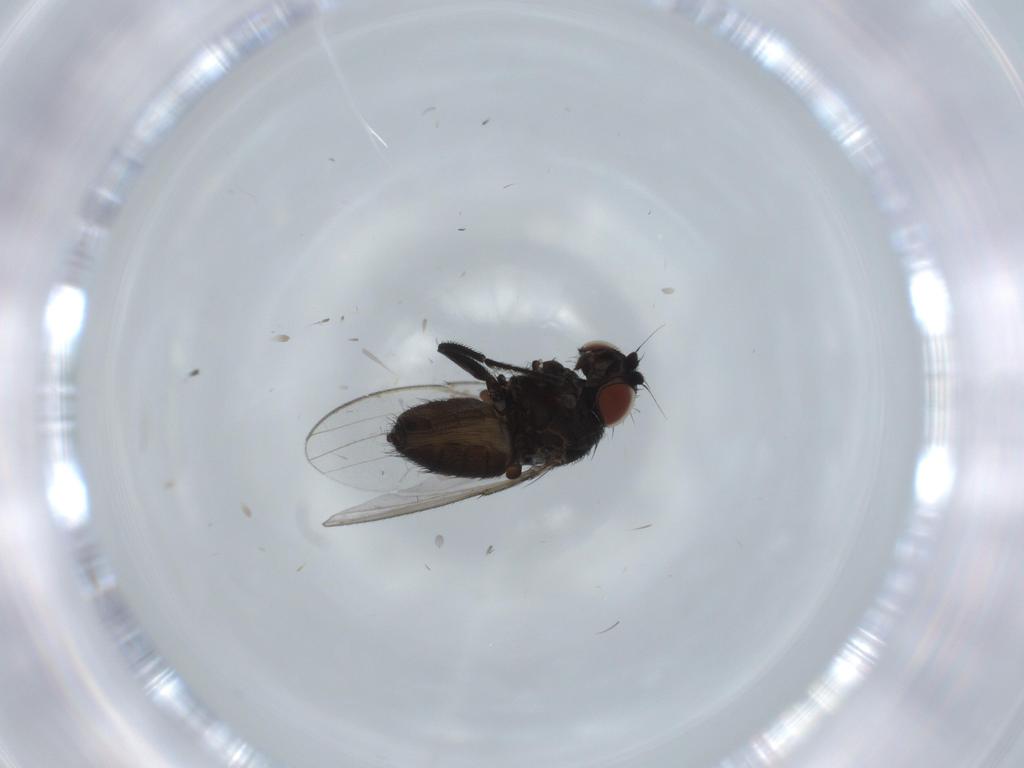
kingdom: Animalia
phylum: Arthropoda
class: Insecta
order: Diptera
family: Milichiidae
